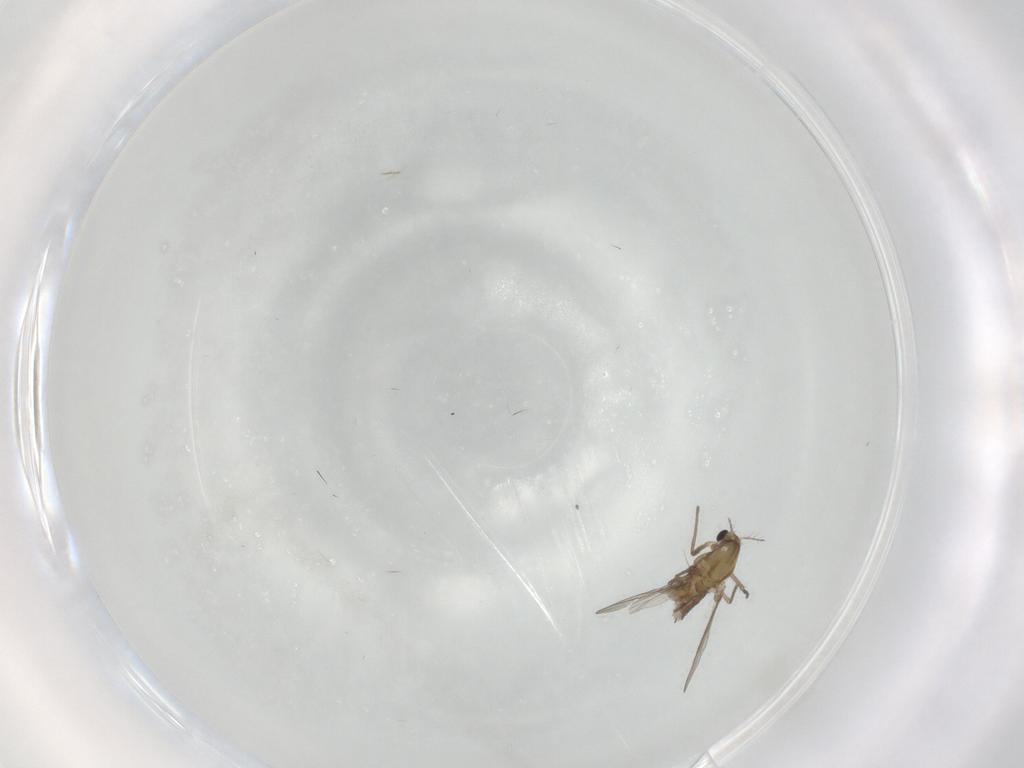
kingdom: Animalia
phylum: Arthropoda
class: Insecta
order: Diptera
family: Chironomidae
